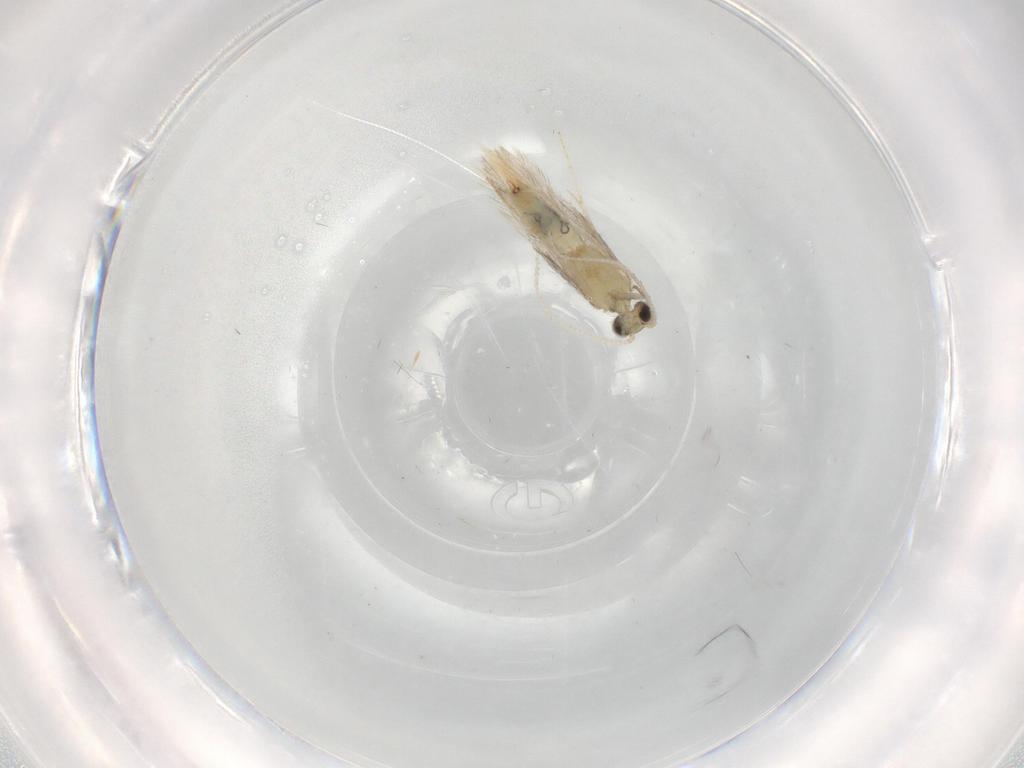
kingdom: Animalia
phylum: Arthropoda
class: Insecta
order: Trichoptera
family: Hydroptilidae
